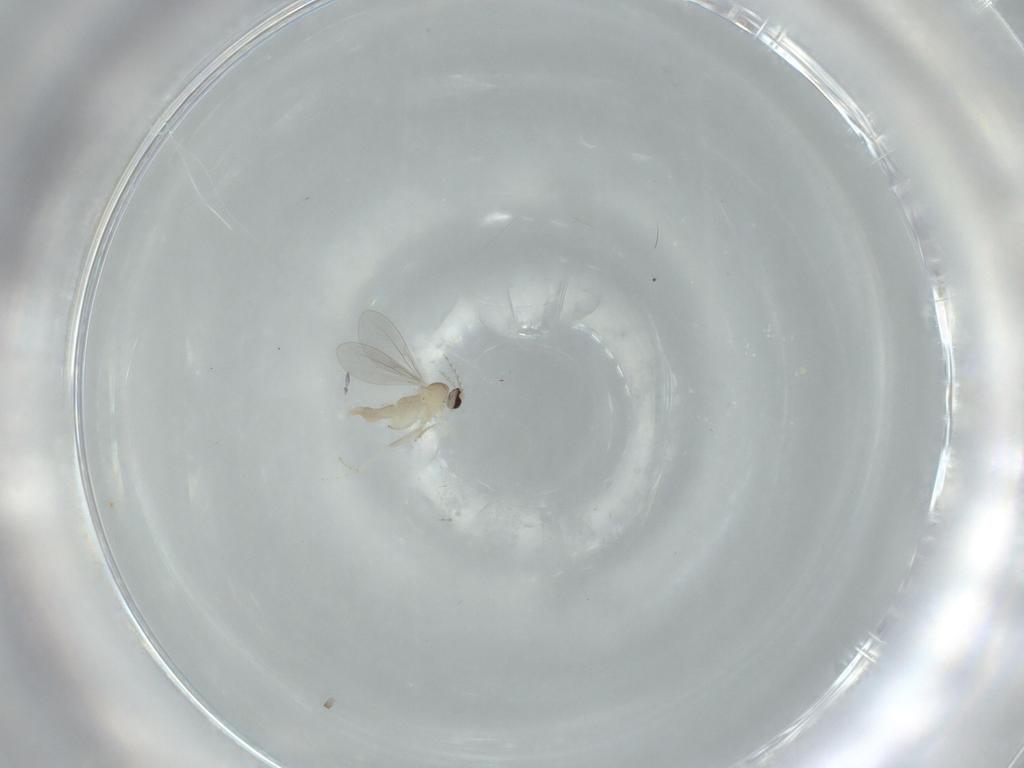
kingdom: Animalia
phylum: Arthropoda
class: Insecta
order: Diptera
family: Cecidomyiidae
